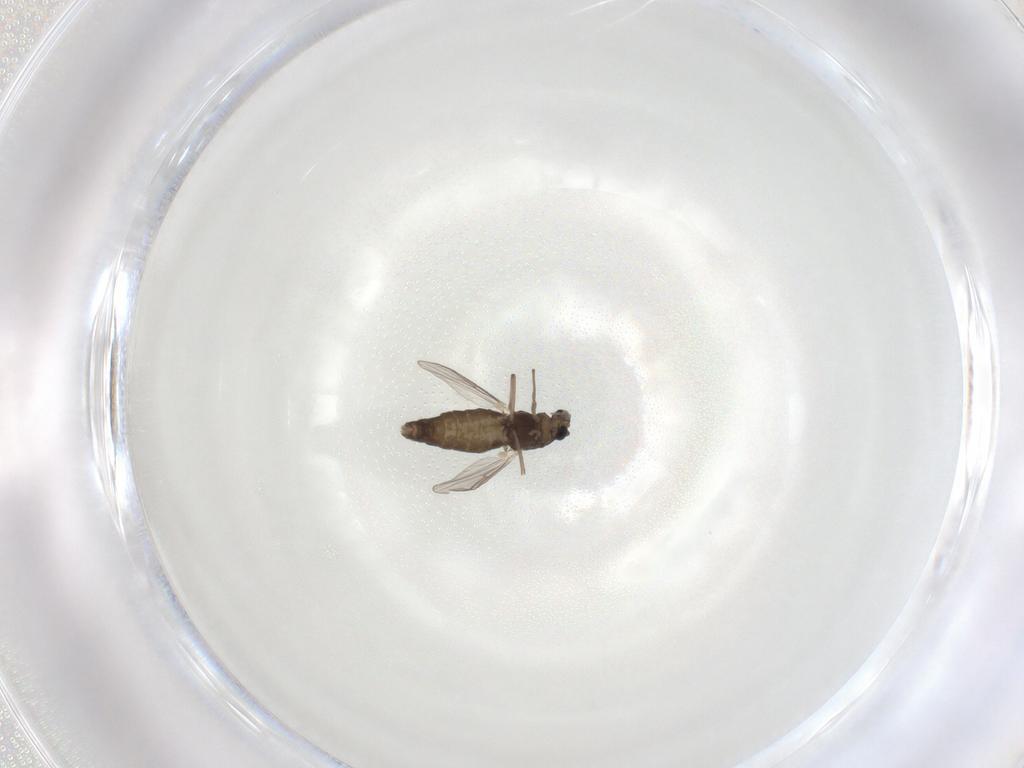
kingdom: Animalia
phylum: Arthropoda
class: Insecta
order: Diptera
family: Chironomidae
